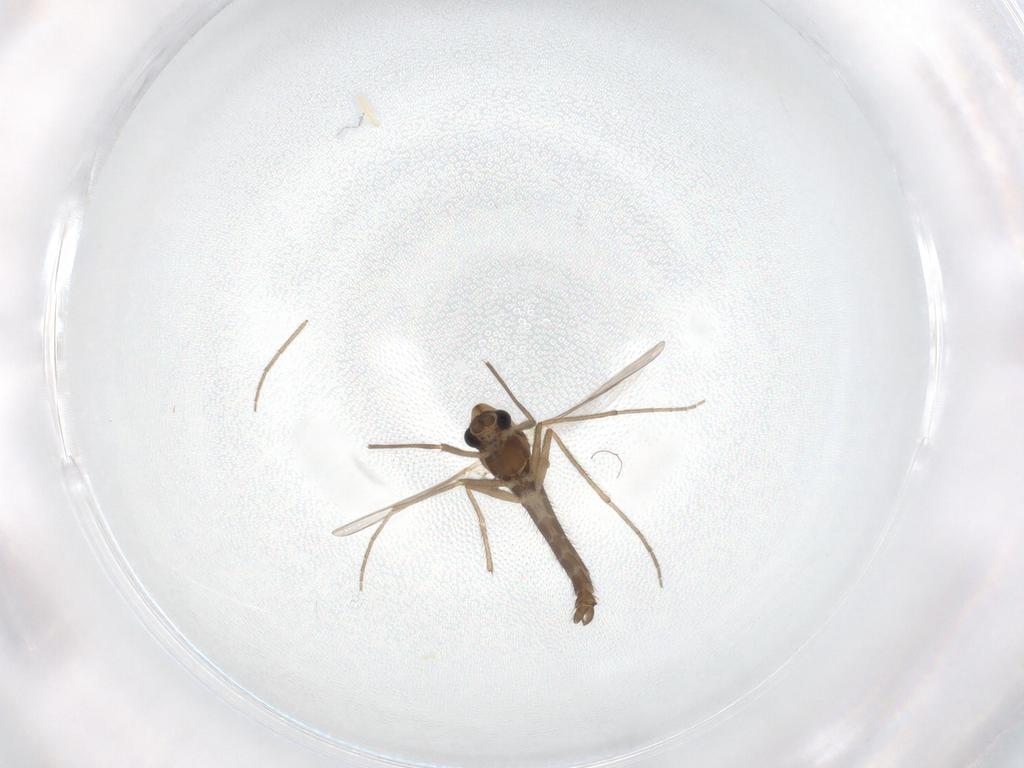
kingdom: Animalia
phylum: Arthropoda
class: Insecta
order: Diptera
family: Chironomidae
